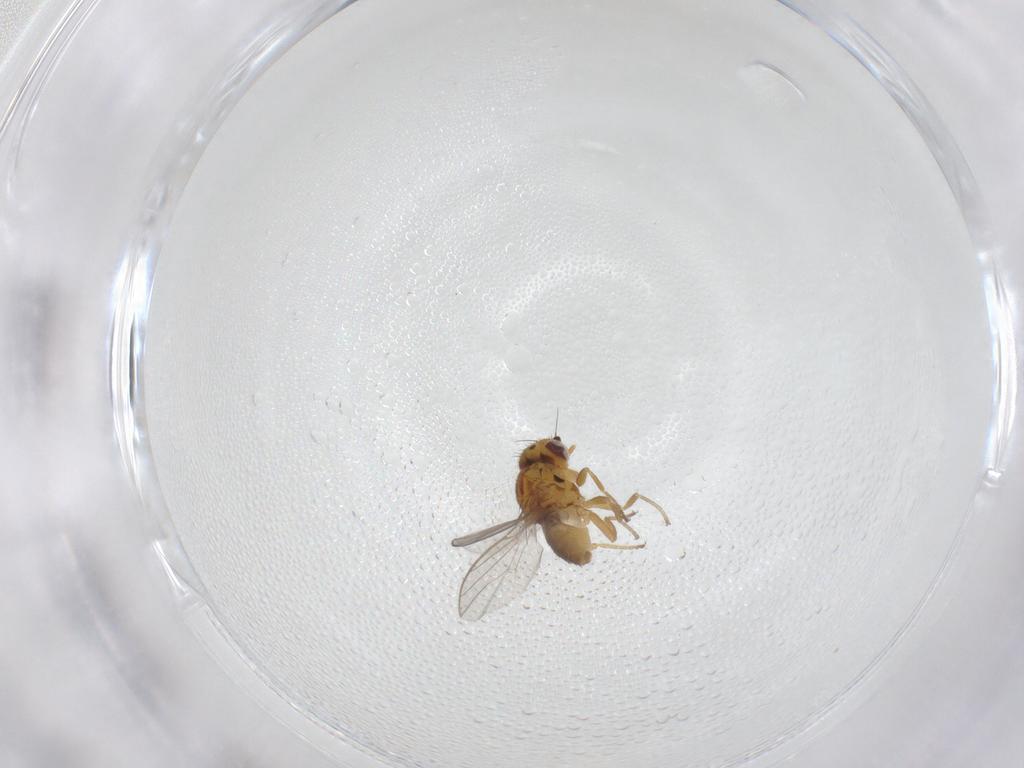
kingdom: Animalia
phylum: Arthropoda
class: Insecta
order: Diptera
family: Chloropidae
